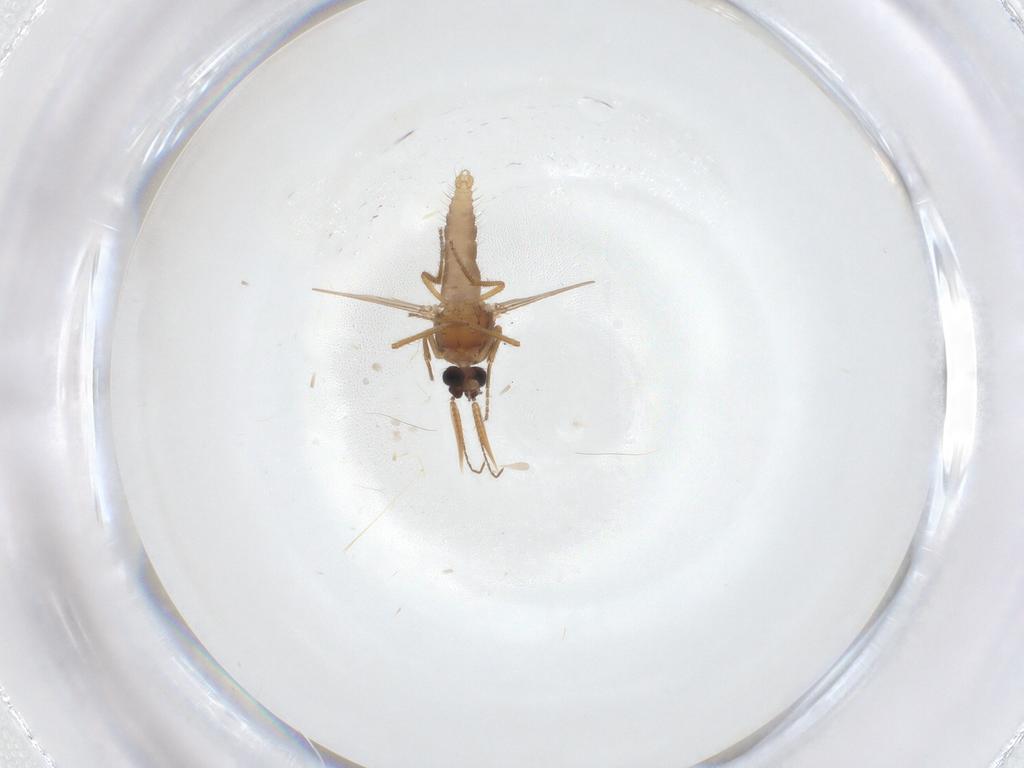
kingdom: Animalia
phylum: Arthropoda
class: Insecta
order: Diptera
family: Ceratopogonidae
